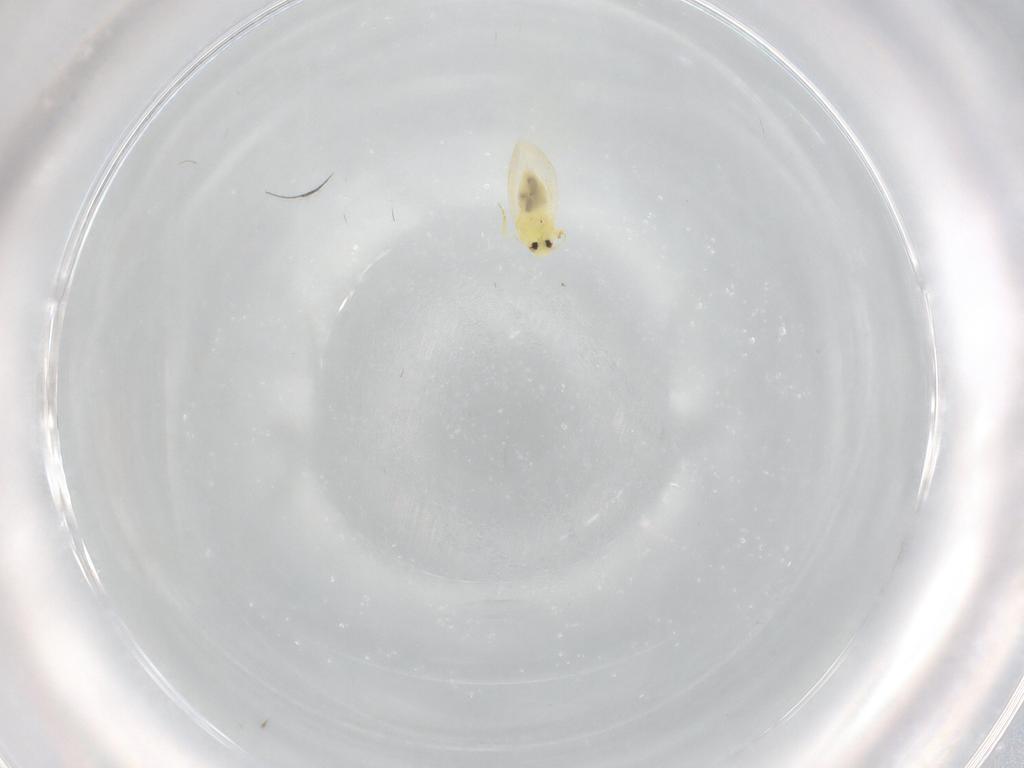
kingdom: Animalia
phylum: Arthropoda
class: Insecta
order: Hemiptera
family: Aleyrodidae
